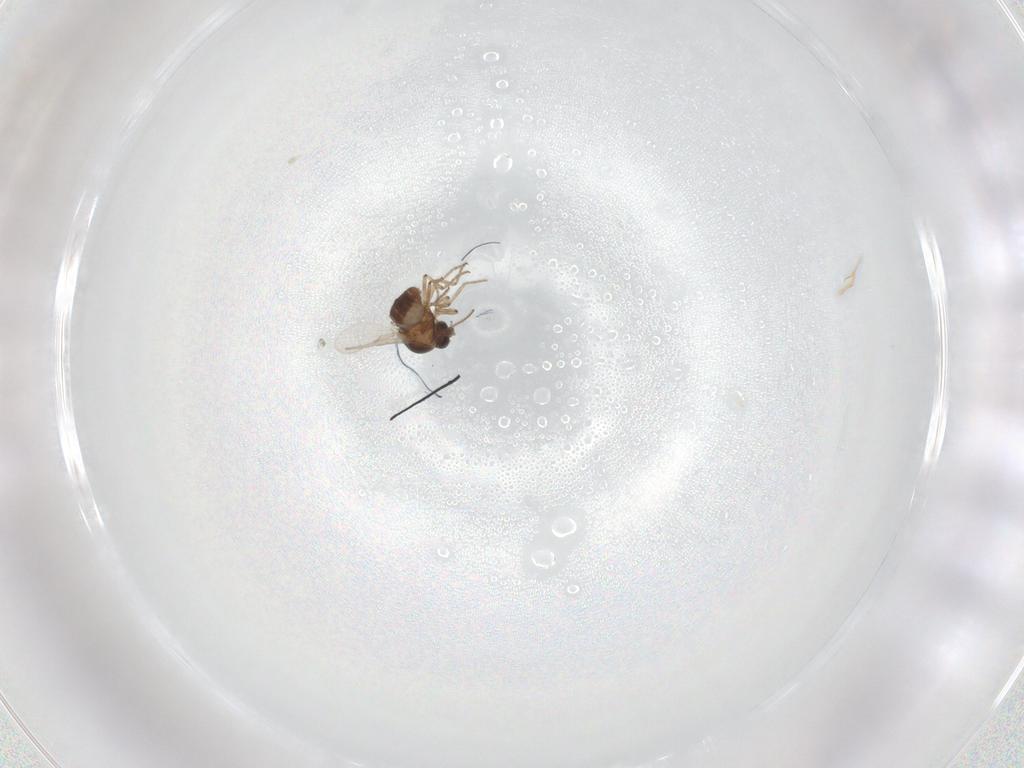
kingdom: Animalia
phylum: Arthropoda
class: Insecta
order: Diptera
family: Ceratopogonidae
